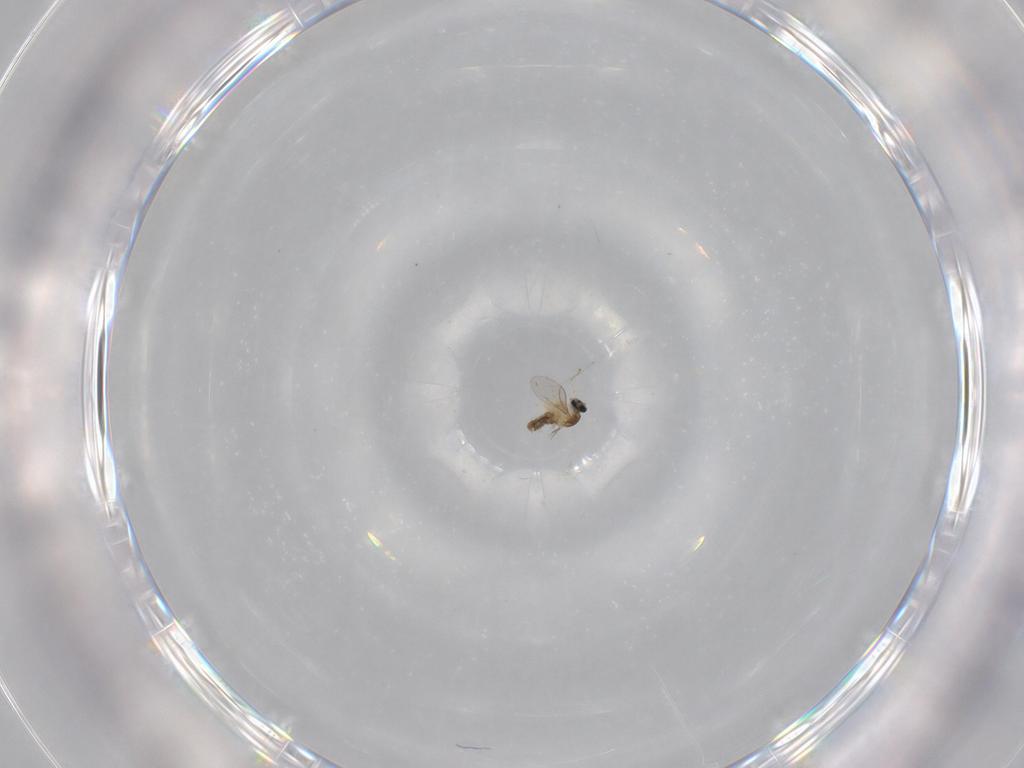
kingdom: Animalia
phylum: Arthropoda
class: Insecta
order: Diptera
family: Cecidomyiidae
